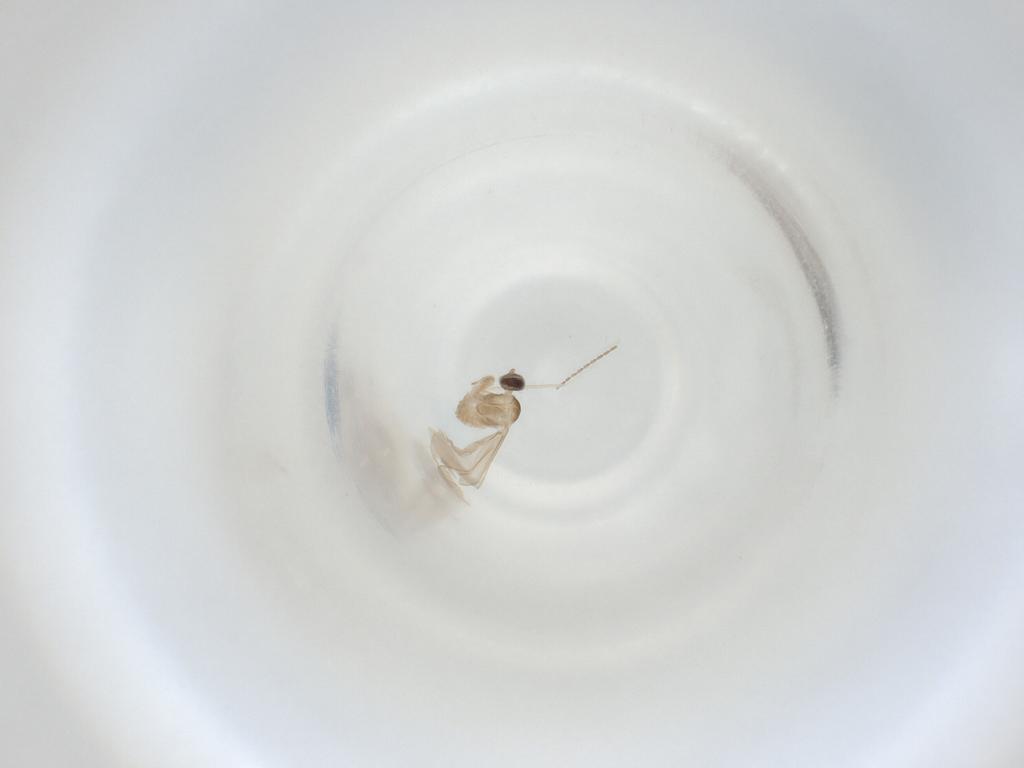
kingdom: Animalia
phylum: Arthropoda
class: Insecta
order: Diptera
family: Cecidomyiidae
